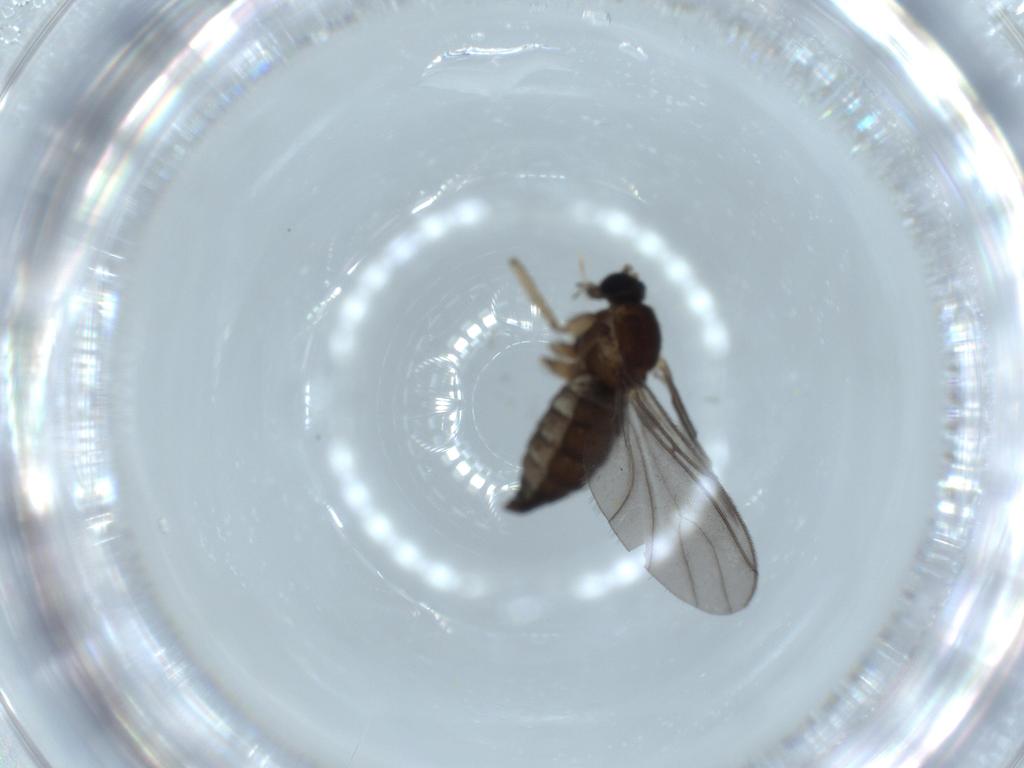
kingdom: Animalia
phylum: Arthropoda
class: Insecta
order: Diptera
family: Sciaridae
